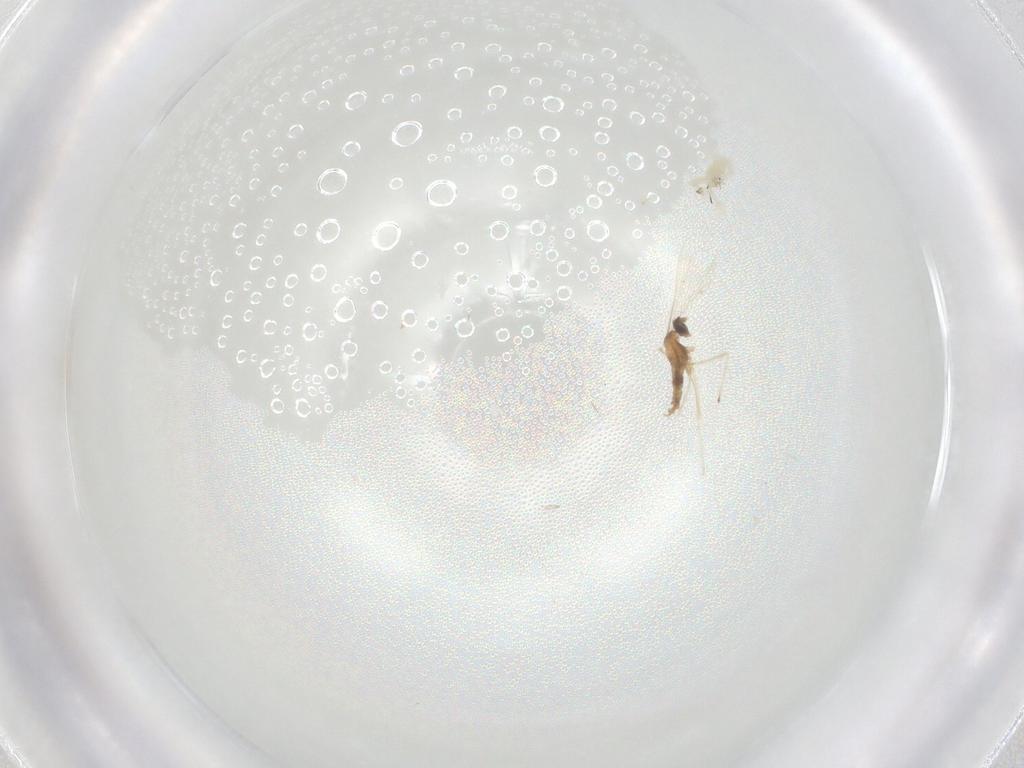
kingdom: Animalia
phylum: Arthropoda
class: Insecta
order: Diptera
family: Cecidomyiidae
